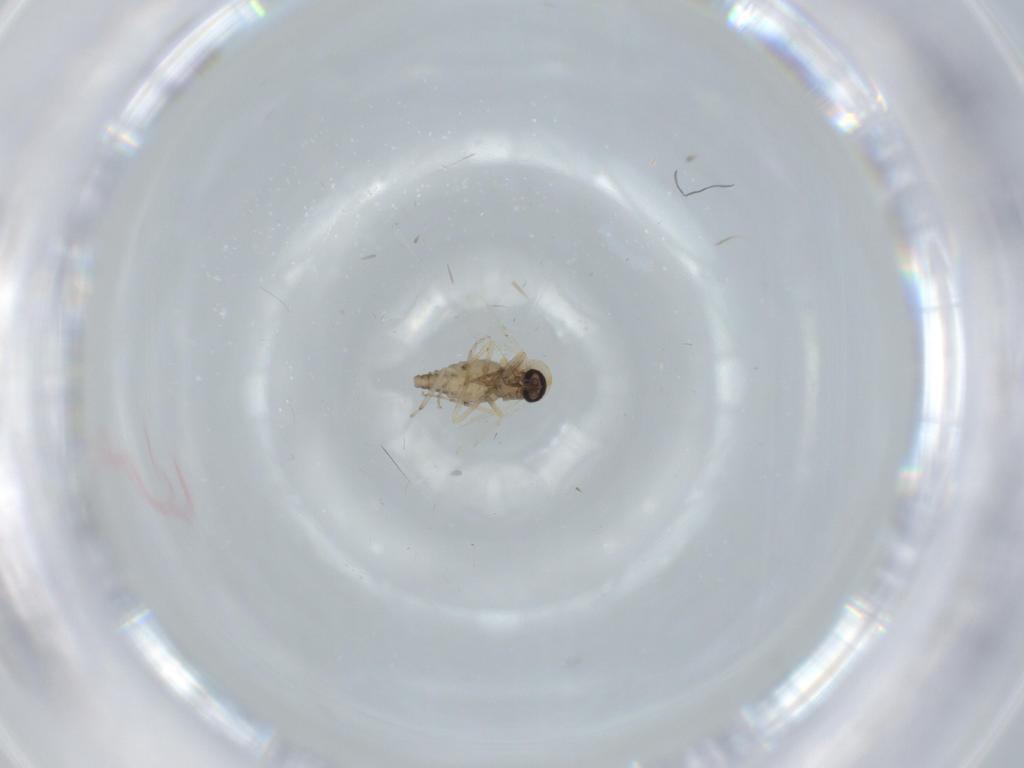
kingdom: Animalia
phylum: Arthropoda
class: Insecta
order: Diptera
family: Ceratopogonidae
